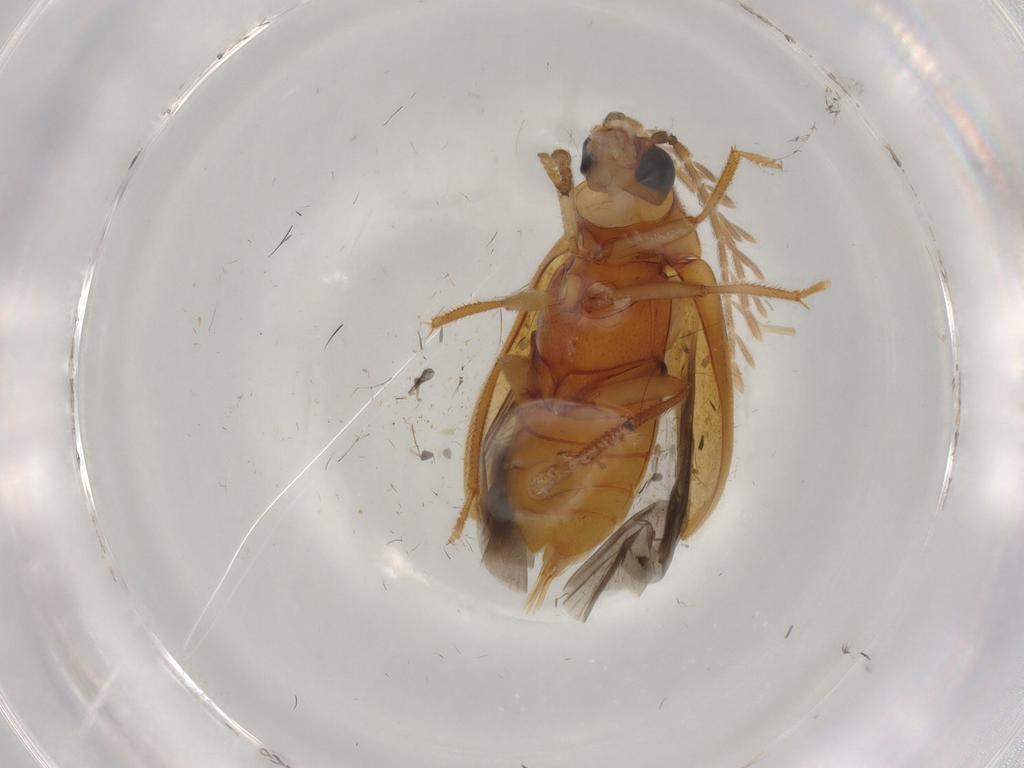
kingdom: Animalia
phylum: Arthropoda
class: Insecta
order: Coleoptera
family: Ptilodactylidae
